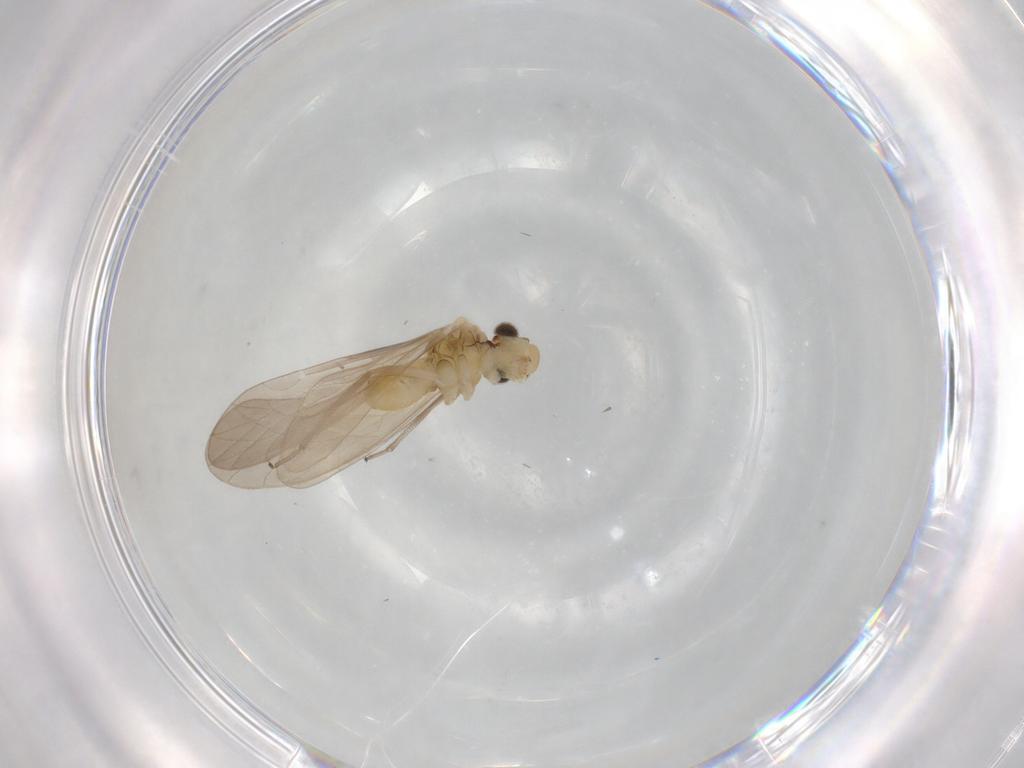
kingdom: Animalia
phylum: Arthropoda
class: Insecta
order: Psocodea
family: Caeciliusidae
